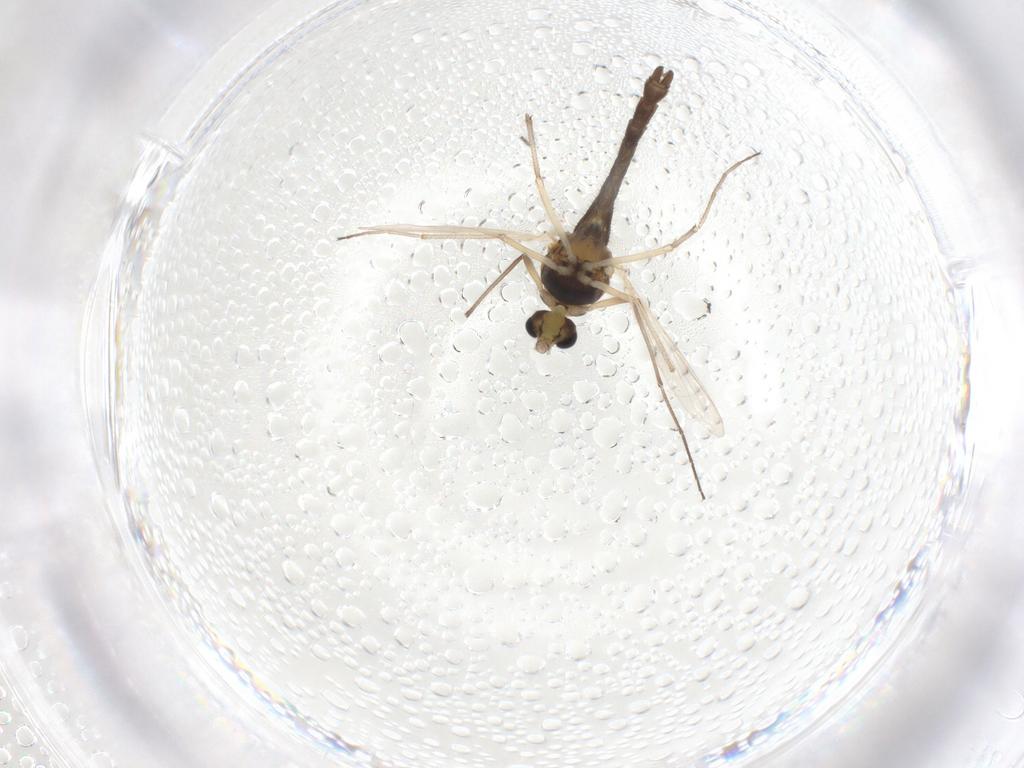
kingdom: Animalia
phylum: Arthropoda
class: Insecta
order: Diptera
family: Chironomidae
